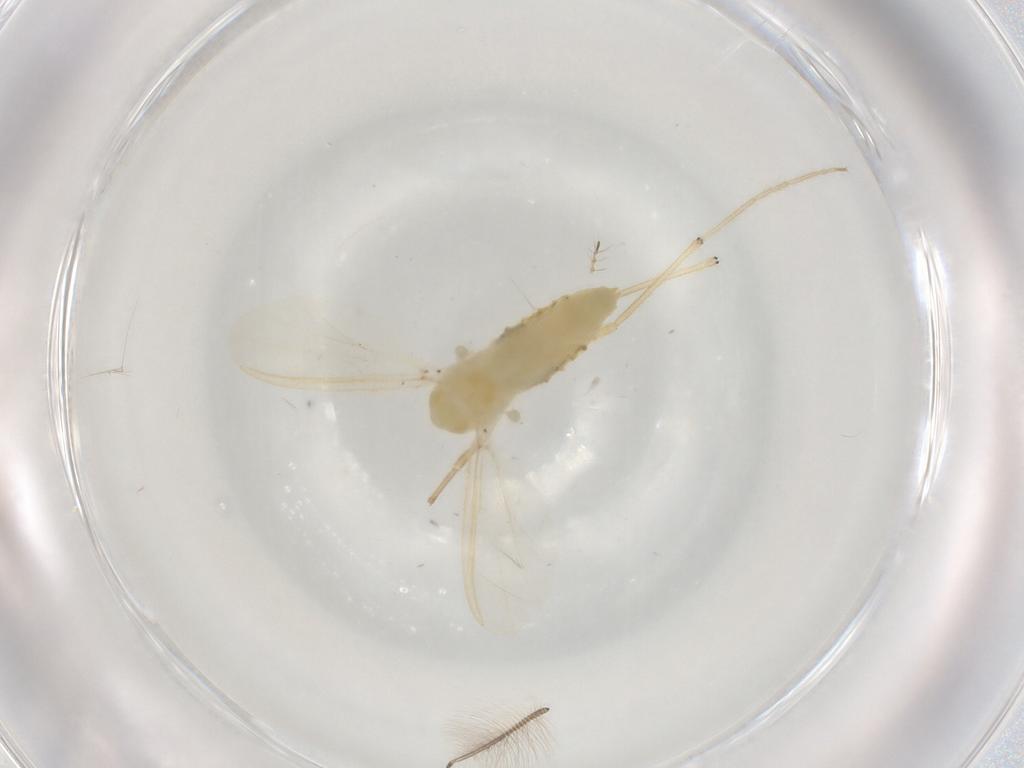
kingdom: Animalia
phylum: Arthropoda
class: Insecta
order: Diptera
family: Chironomidae
